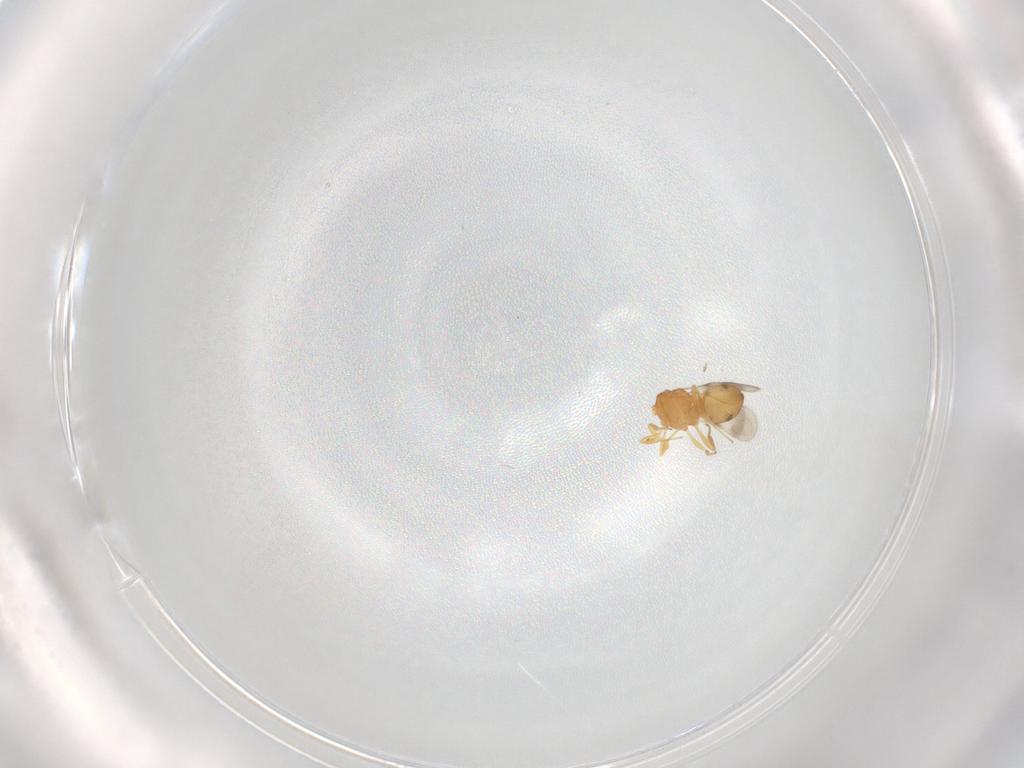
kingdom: Animalia
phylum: Arthropoda
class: Insecta
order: Hymenoptera
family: Scelionidae
